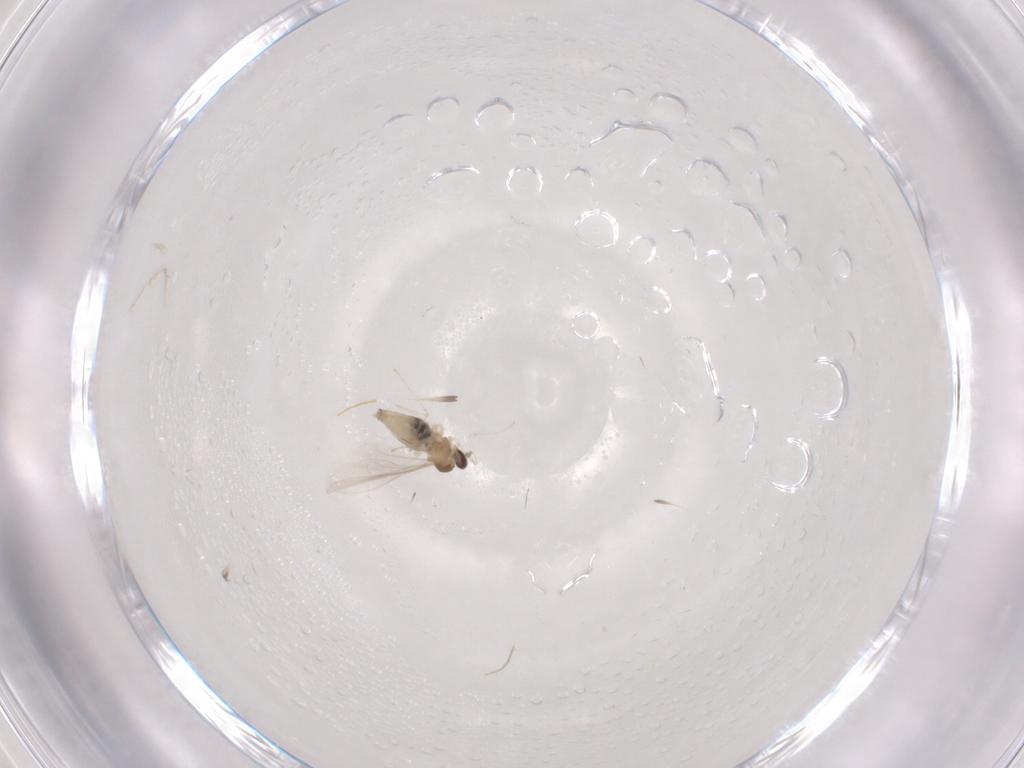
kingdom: Animalia
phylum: Arthropoda
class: Insecta
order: Diptera
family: Chironomidae
